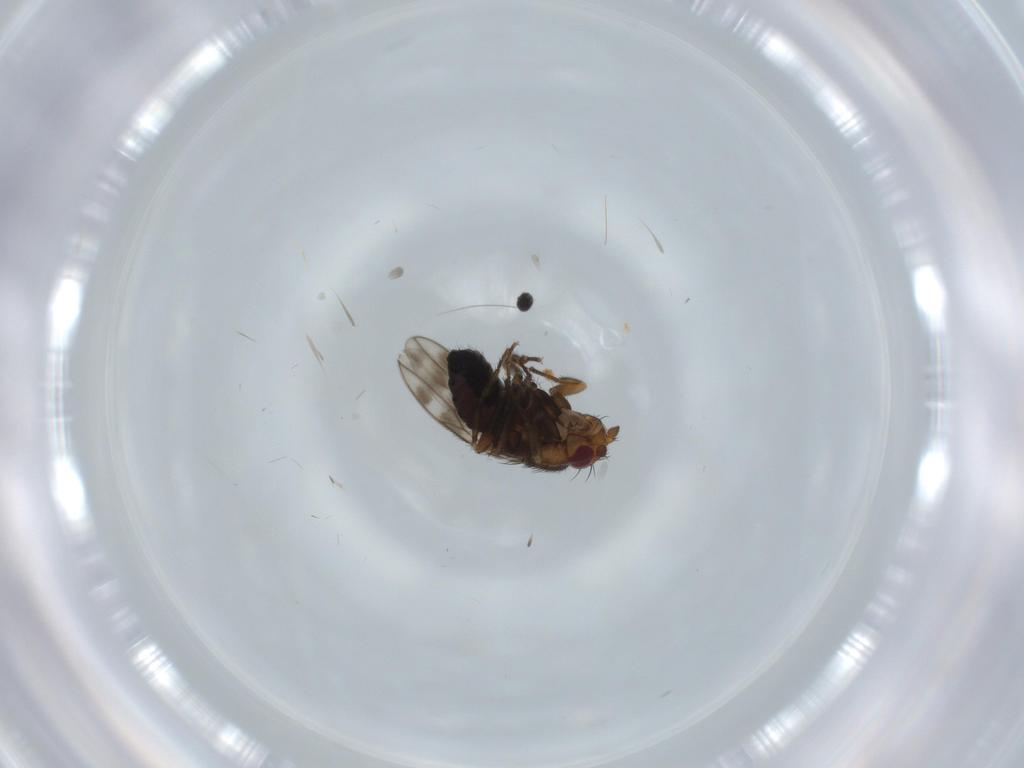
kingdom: Animalia
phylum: Arthropoda
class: Insecta
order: Diptera
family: Milichiidae
